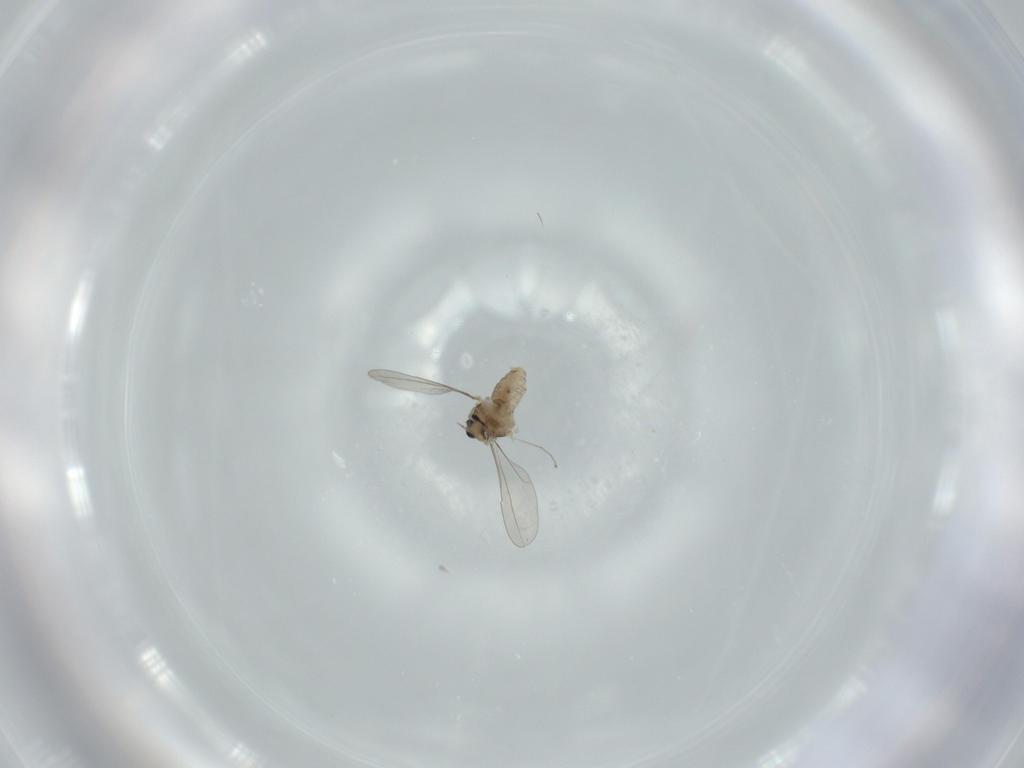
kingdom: Animalia
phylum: Arthropoda
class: Insecta
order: Diptera
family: Cecidomyiidae
